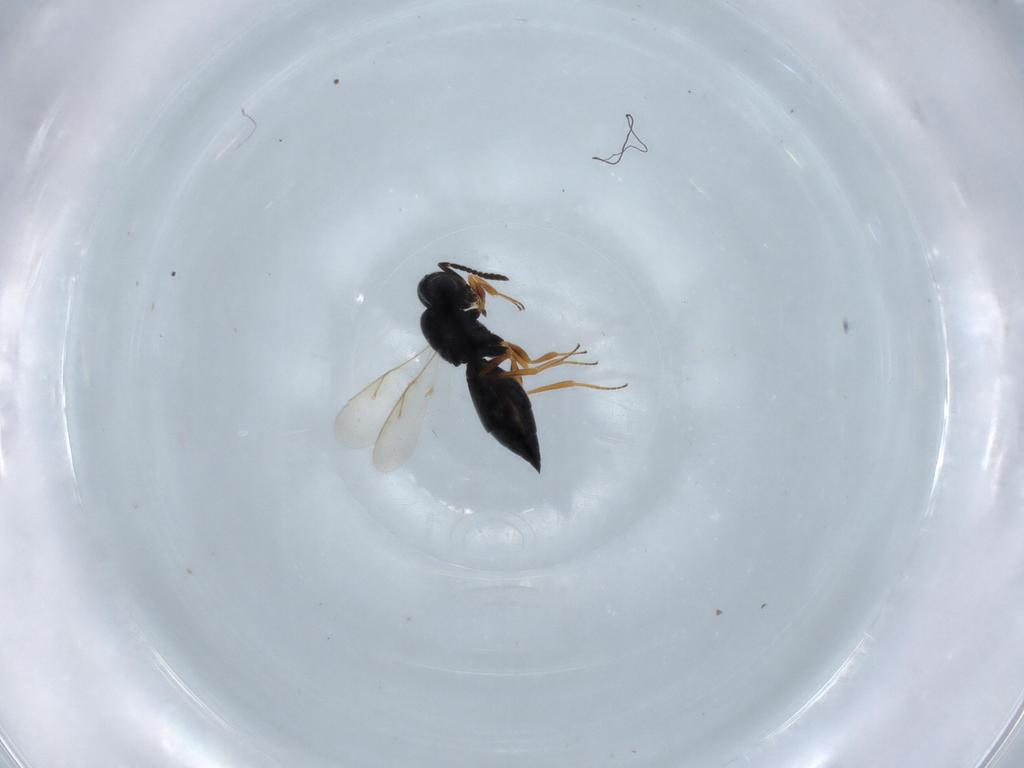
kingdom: Animalia
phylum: Arthropoda
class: Insecta
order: Hymenoptera
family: Scelionidae
